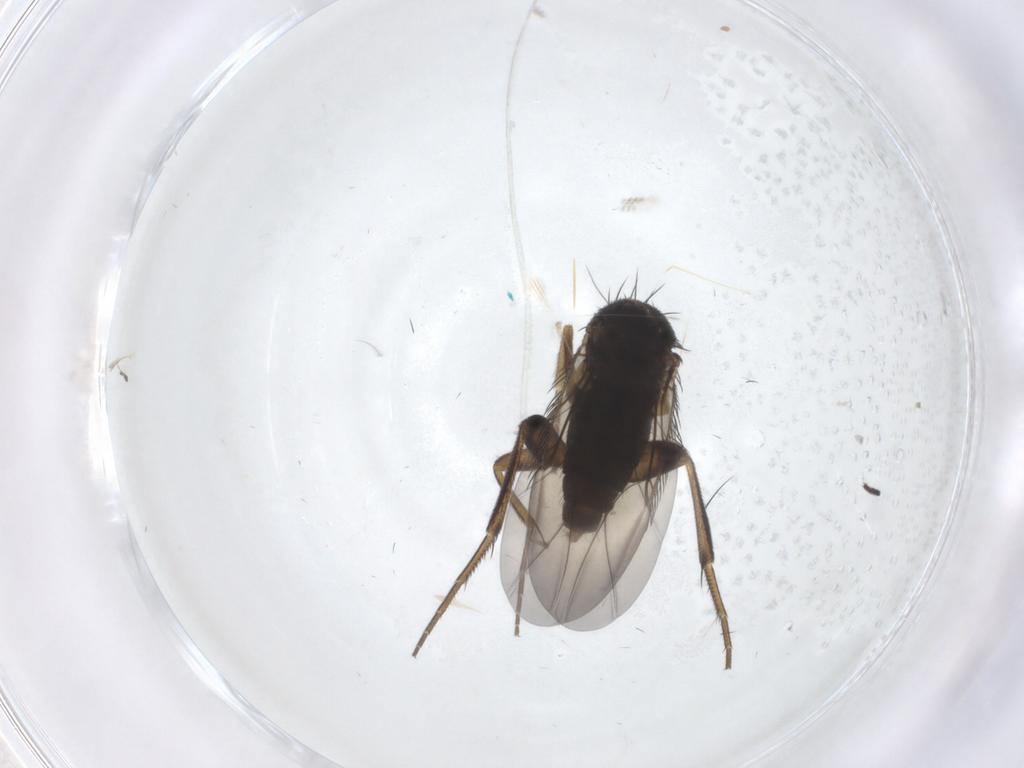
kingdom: Animalia
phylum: Arthropoda
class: Insecta
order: Diptera
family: Phoridae
